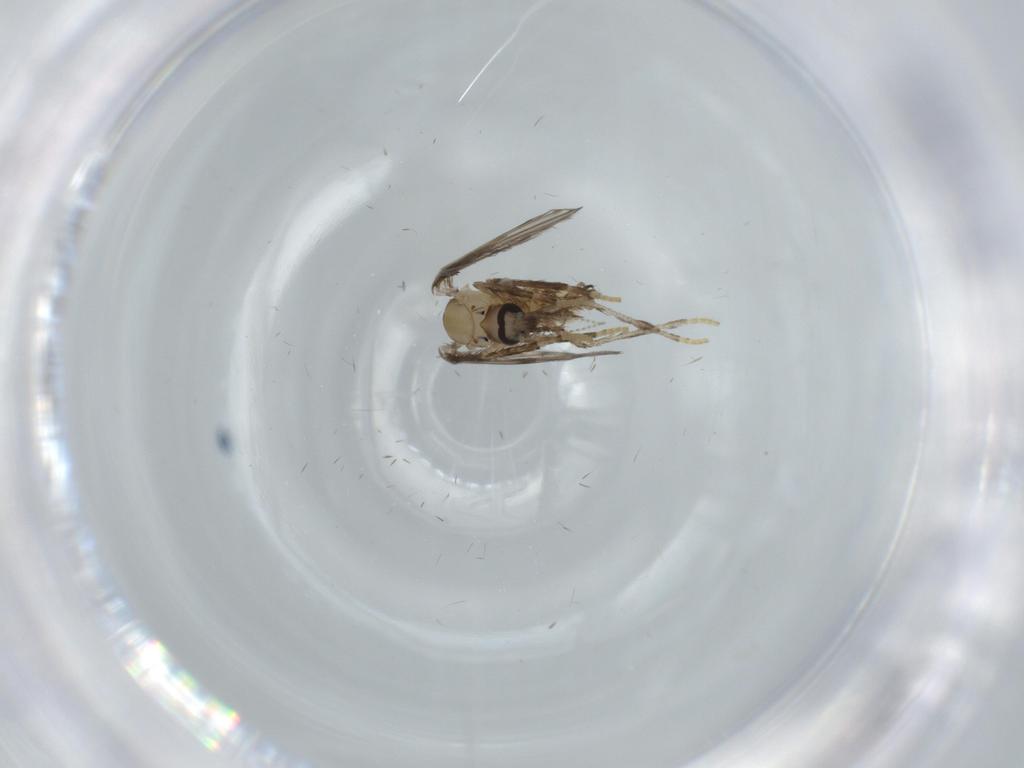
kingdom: Animalia
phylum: Arthropoda
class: Insecta
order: Diptera
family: Cecidomyiidae
